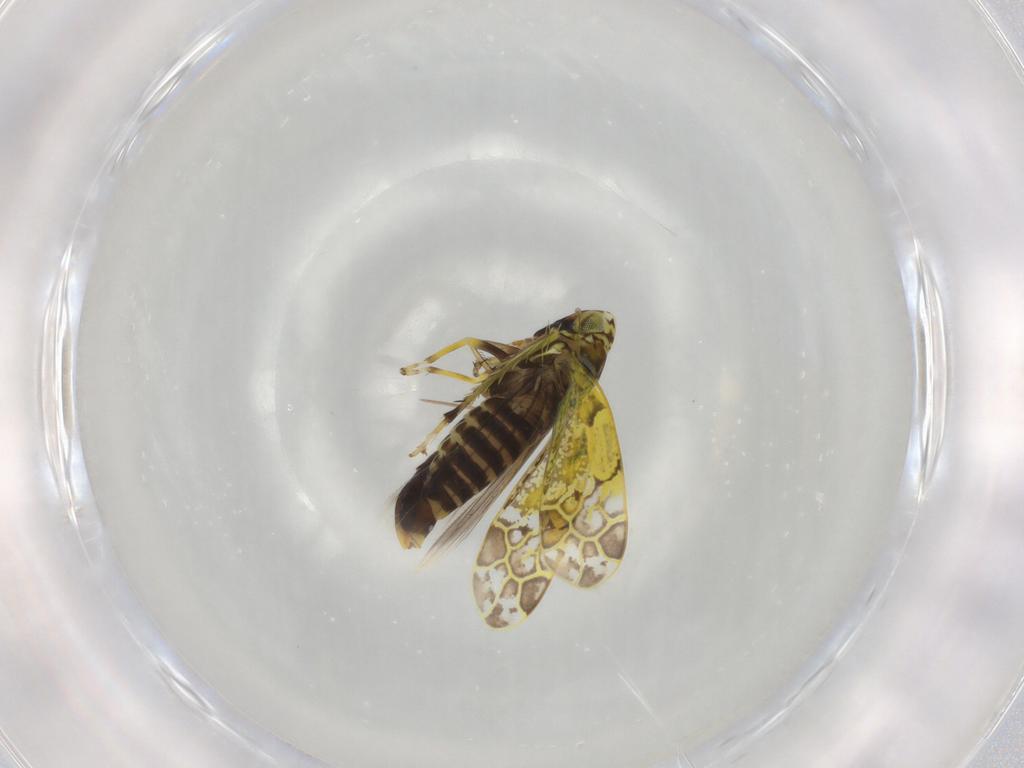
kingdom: Animalia
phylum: Arthropoda
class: Insecta
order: Hemiptera
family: Cicadellidae
